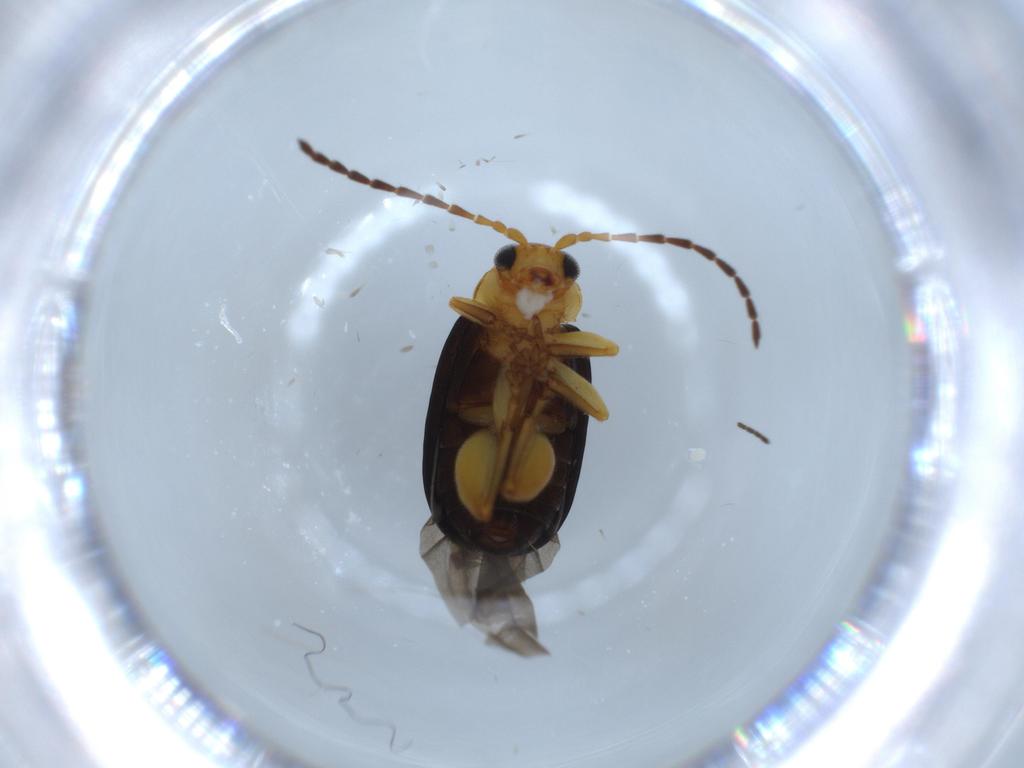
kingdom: Animalia
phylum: Arthropoda
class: Insecta
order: Coleoptera
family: Chrysomelidae
